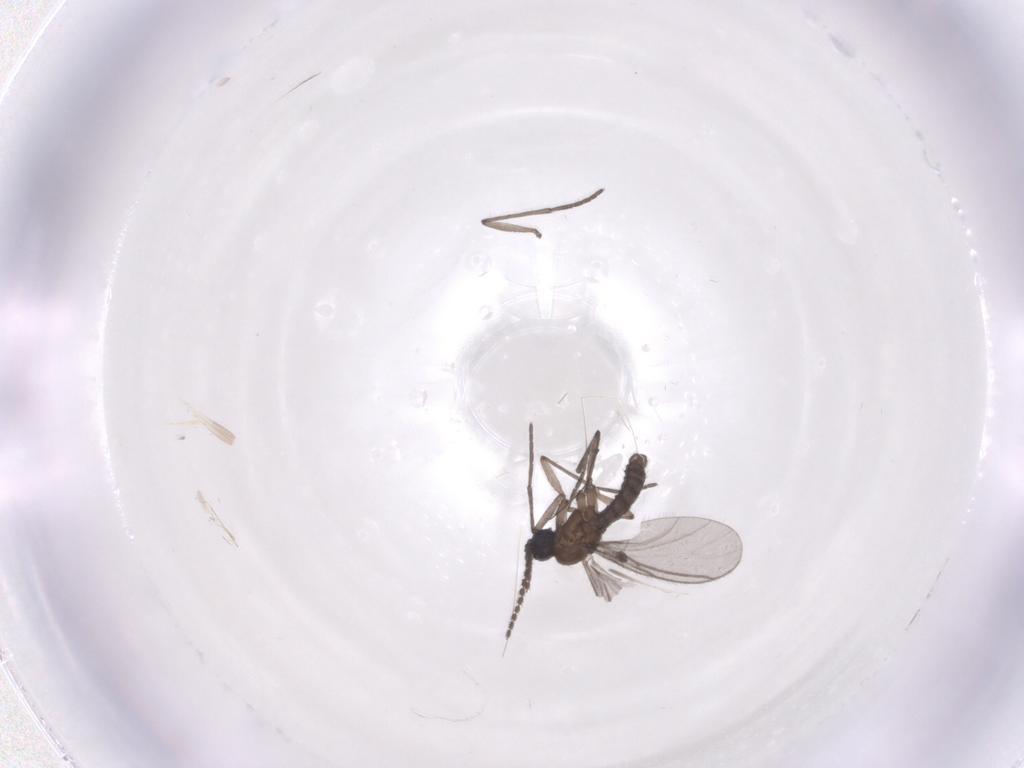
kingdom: Animalia
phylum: Arthropoda
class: Insecta
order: Diptera
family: Sciaridae
